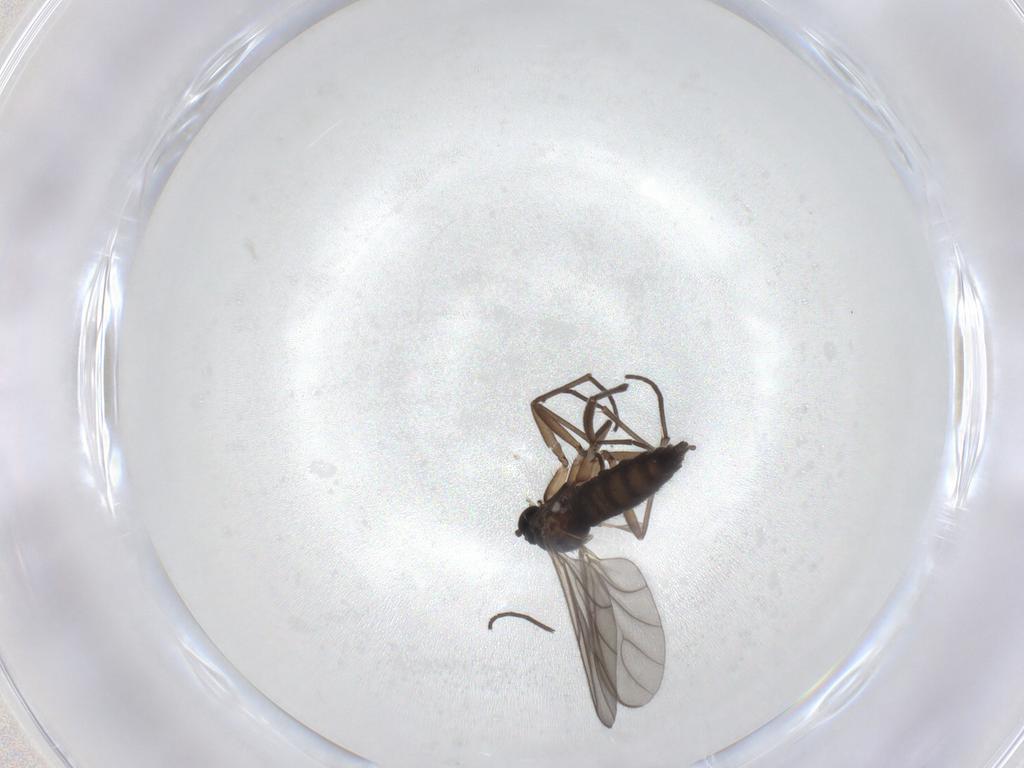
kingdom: Animalia
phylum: Arthropoda
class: Insecta
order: Diptera
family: Sciaridae
